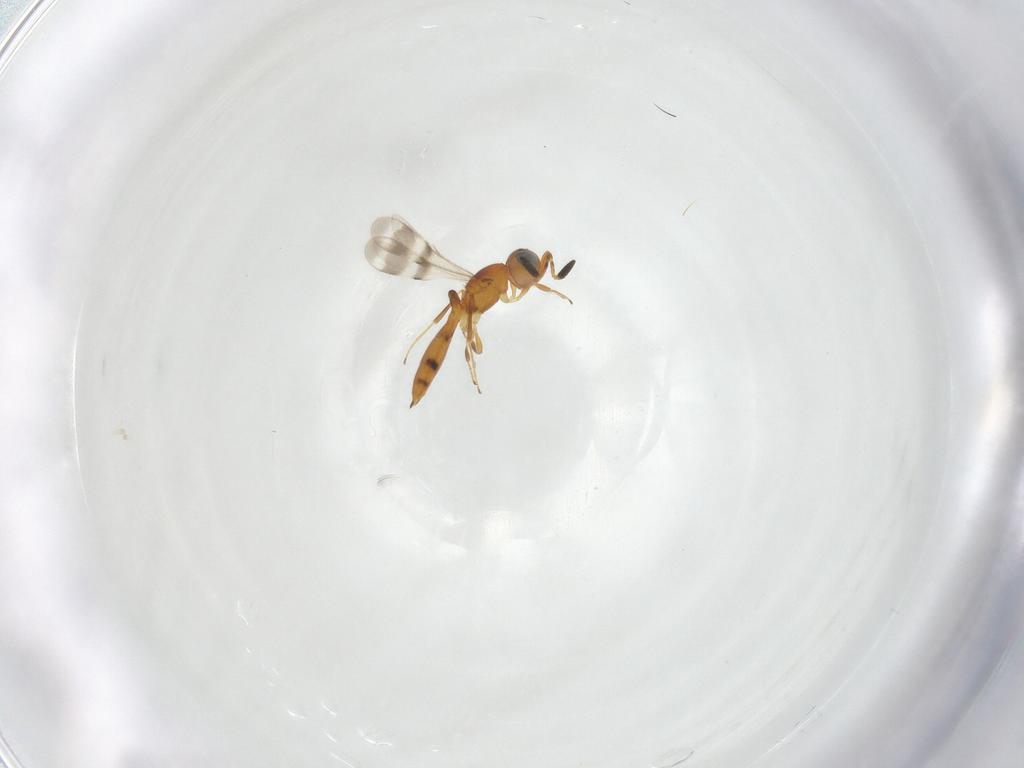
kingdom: Animalia
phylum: Arthropoda
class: Insecta
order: Hymenoptera
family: Scelionidae
